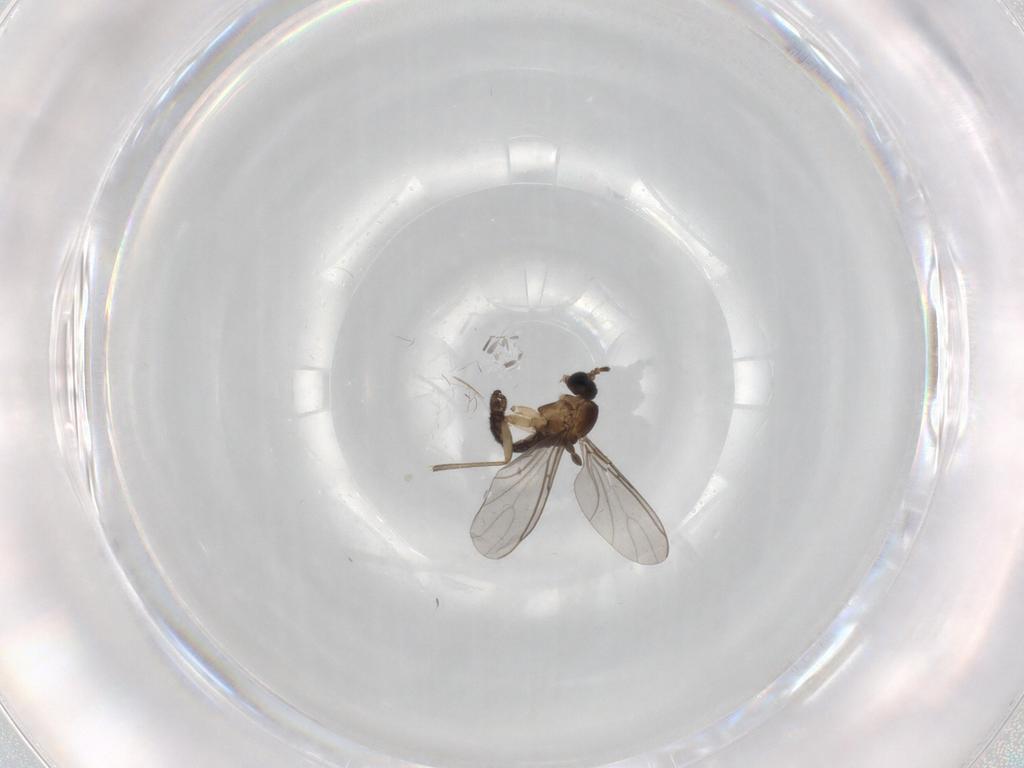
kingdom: Animalia
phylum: Arthropoda
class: Insecta
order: Diptera
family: Sciaridae
